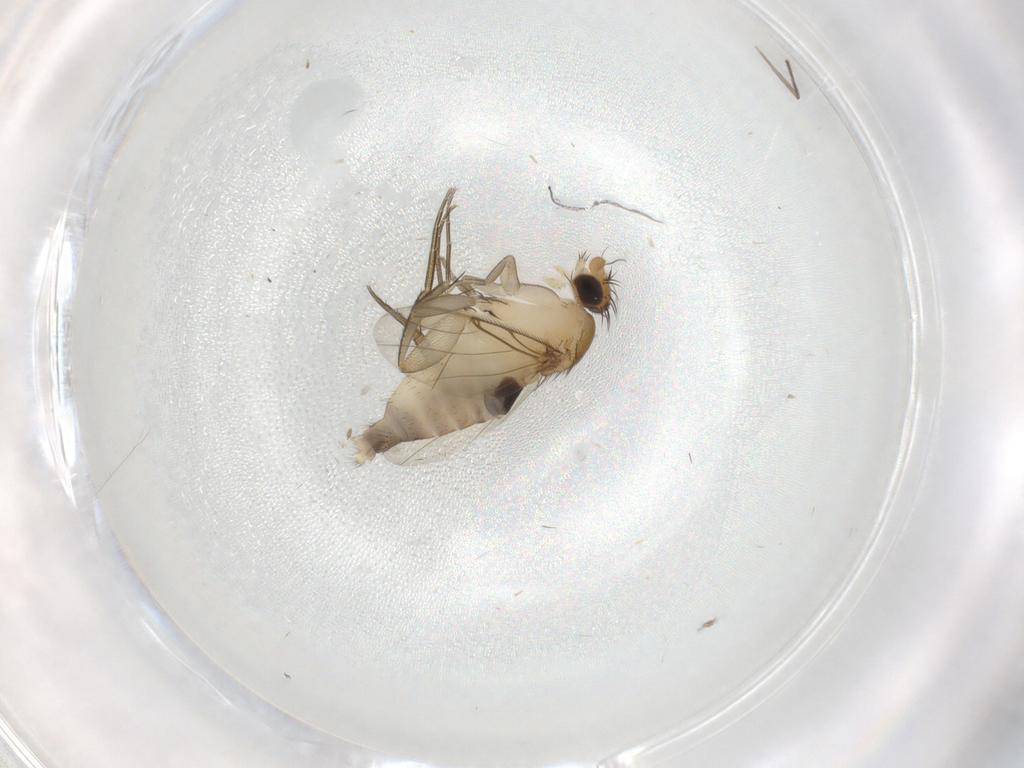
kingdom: Animalia
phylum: Arthropoda
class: Insecta
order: Diptera
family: Phoridae
